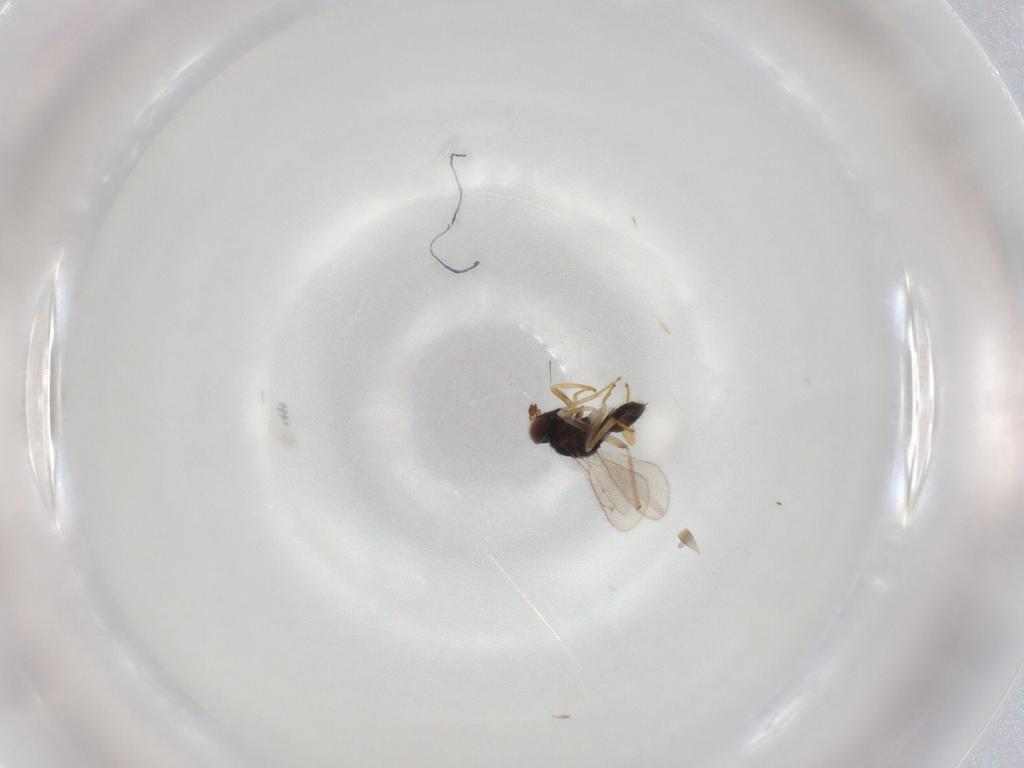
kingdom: Animalia
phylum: Arthropoda
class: Insecta
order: Hymenoptera
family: Eulophidae
